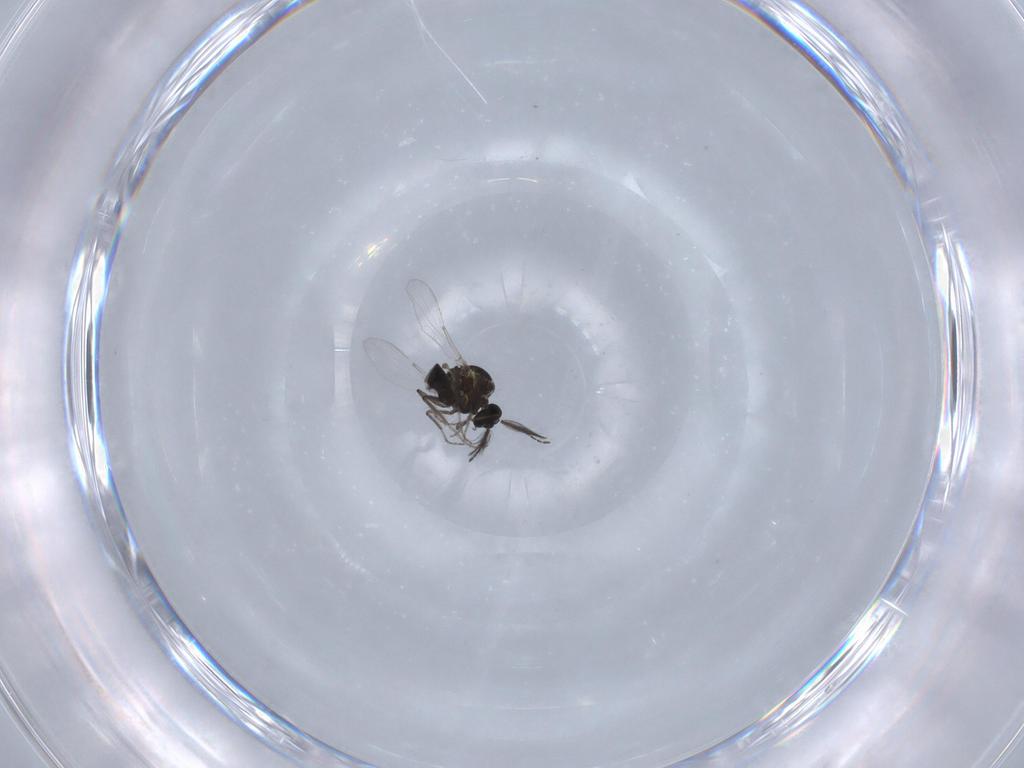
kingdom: Animalia
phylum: Arthropoda
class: Insecta
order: Diptera
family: Ceratopogonidae
